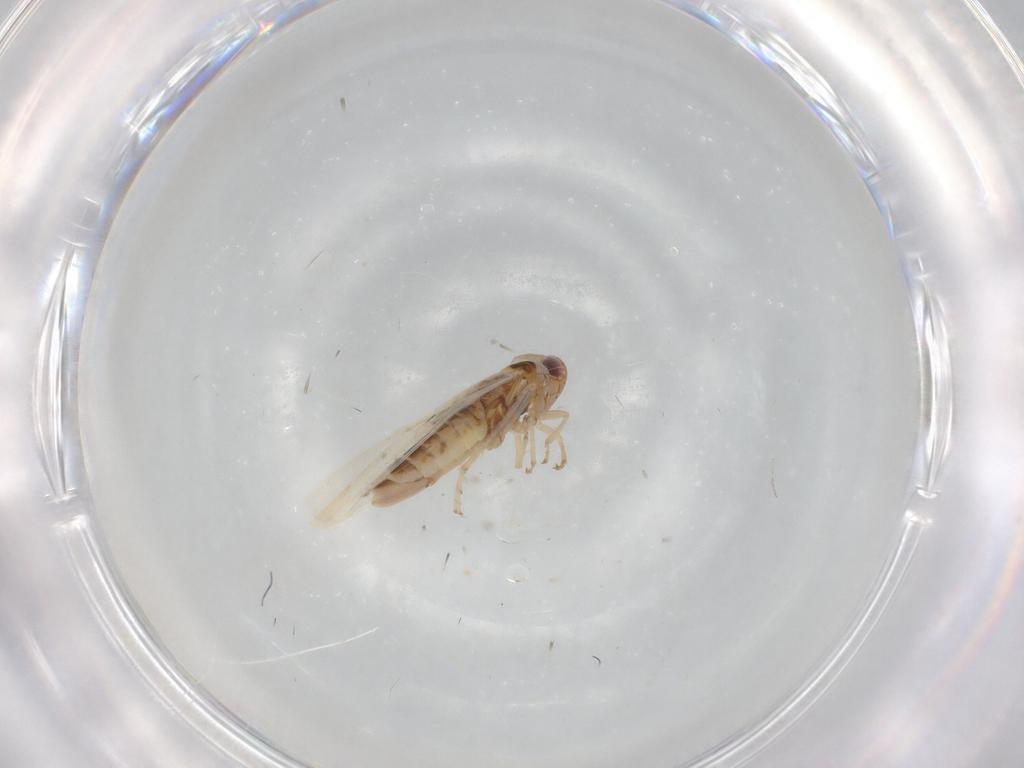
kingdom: Animalia
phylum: Arthropoda
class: Insecta
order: Hemiptera
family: Cicadellidae
